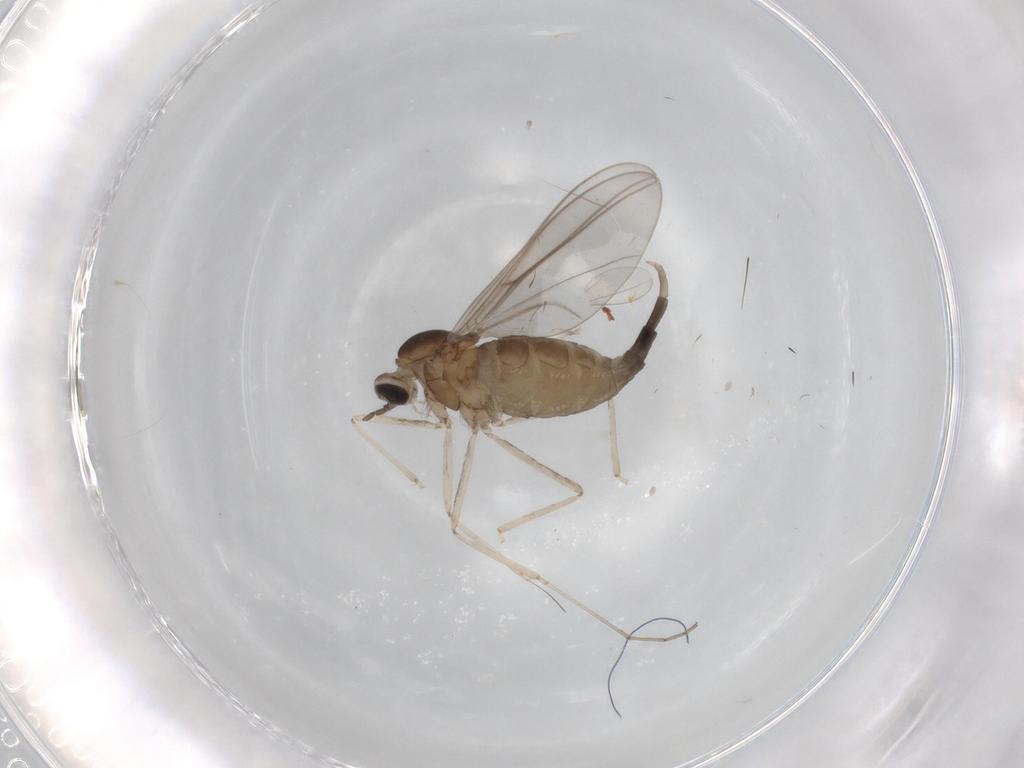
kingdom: Animalia
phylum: Arthropoda
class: Insecta
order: Diptera
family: Cecidomyiidae
